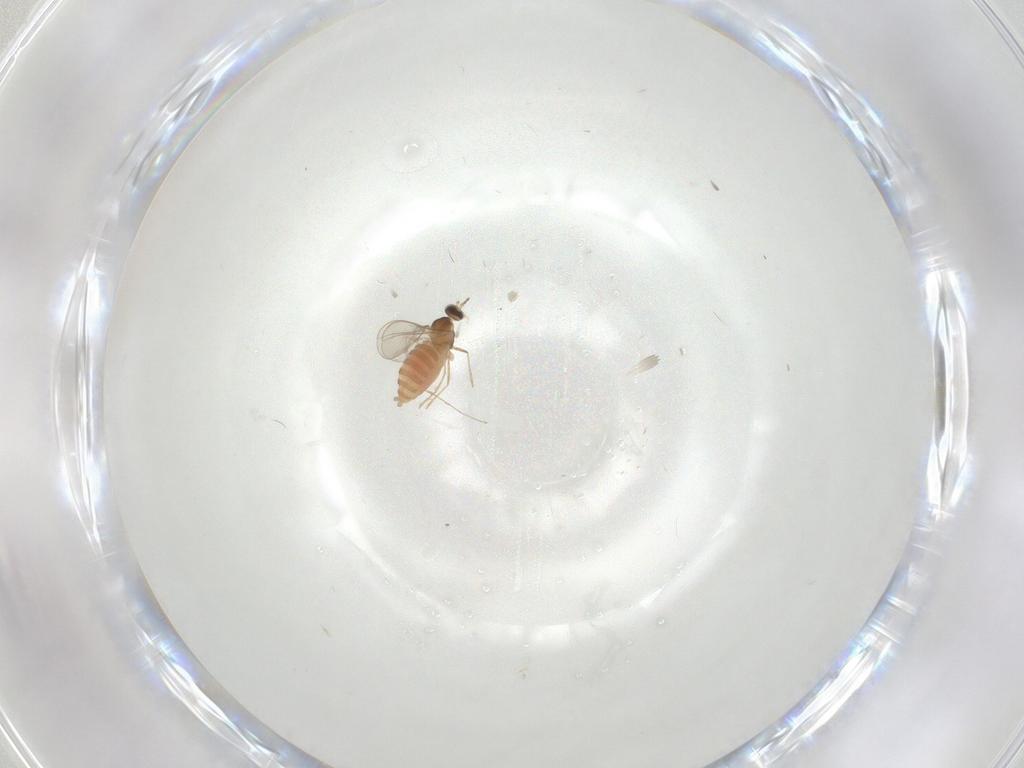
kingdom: Animalia
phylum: Arthropoda
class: Insecta
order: Diptera
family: Cecidomyiidae
